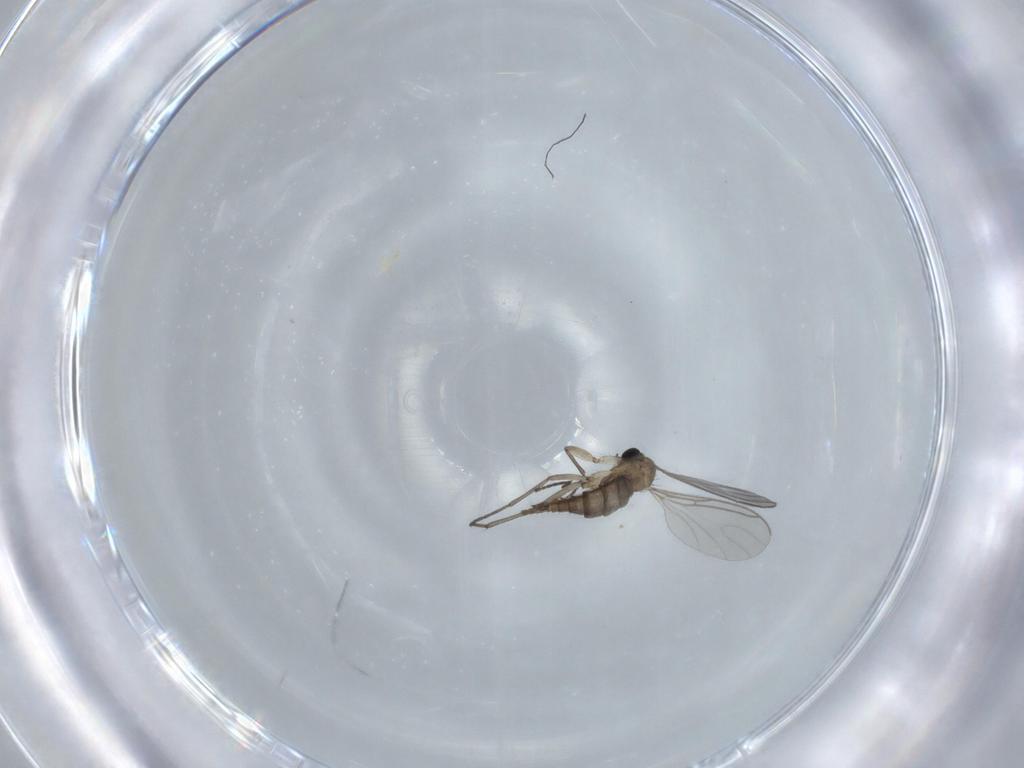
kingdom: Animalia
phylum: Arthropoda
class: Insecta
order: Diptera
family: Sciaridae
